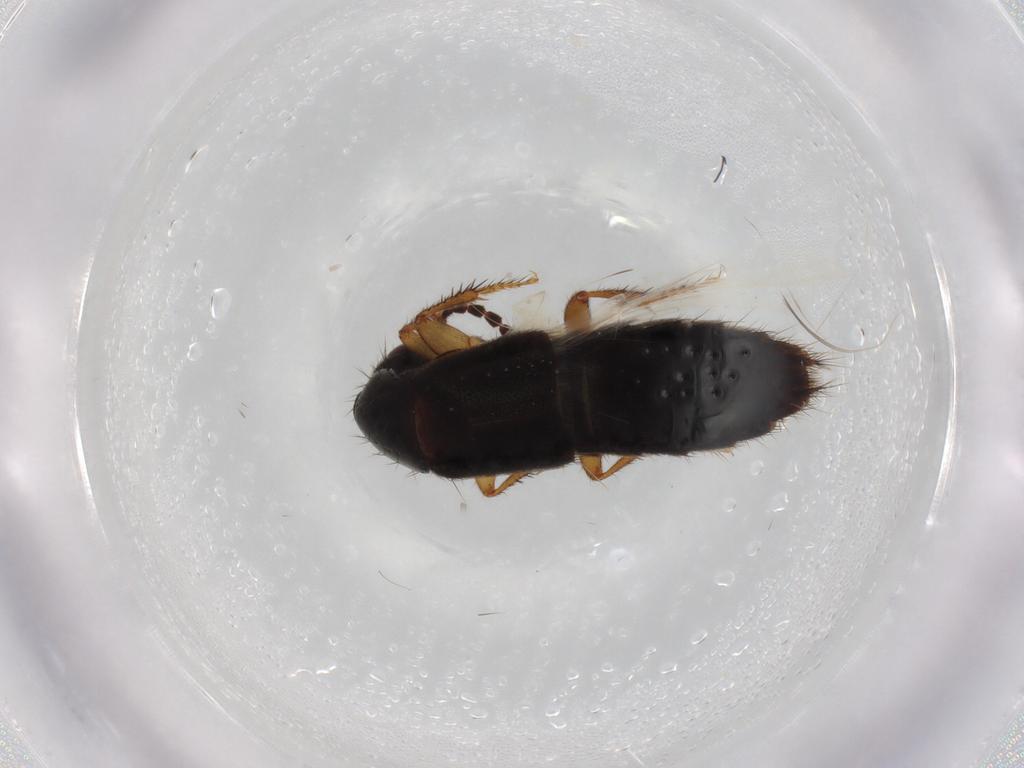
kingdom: Animalia
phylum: Arthropoda
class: Insecta
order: Coleoptera
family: Staphylinidae
